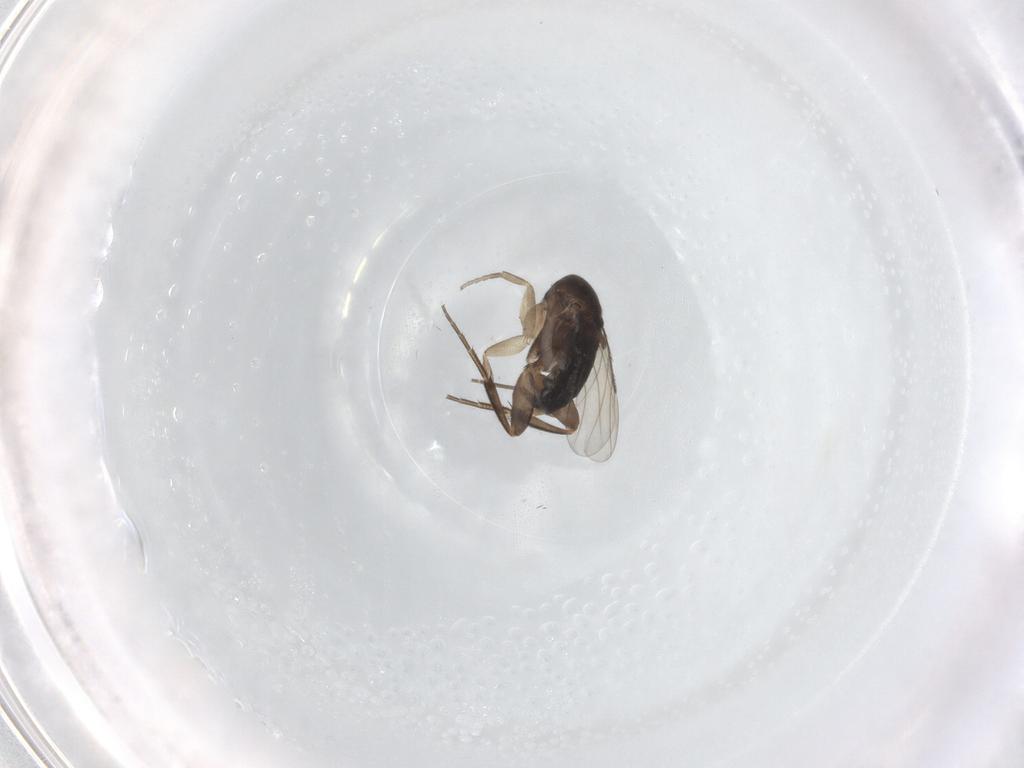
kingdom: Animalia
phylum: Arthropoda
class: Insecta
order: Diptera
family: Phoridae
